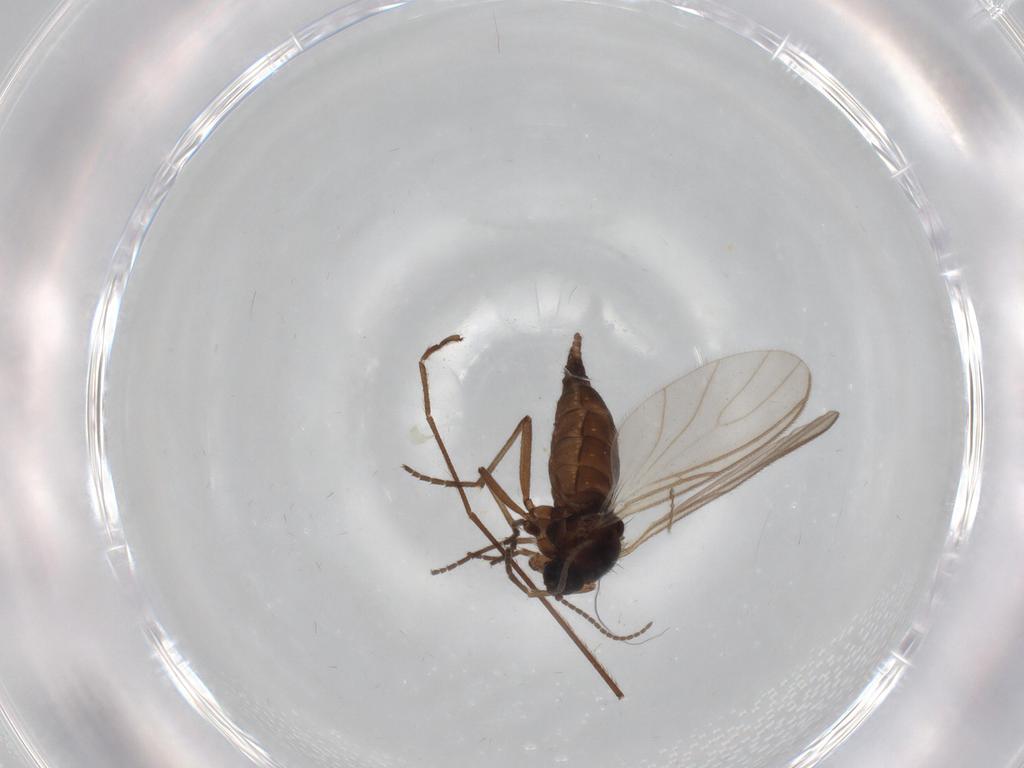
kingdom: Animalia
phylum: Arthropoda
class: Insecta
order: Diptera
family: Sciaridae
